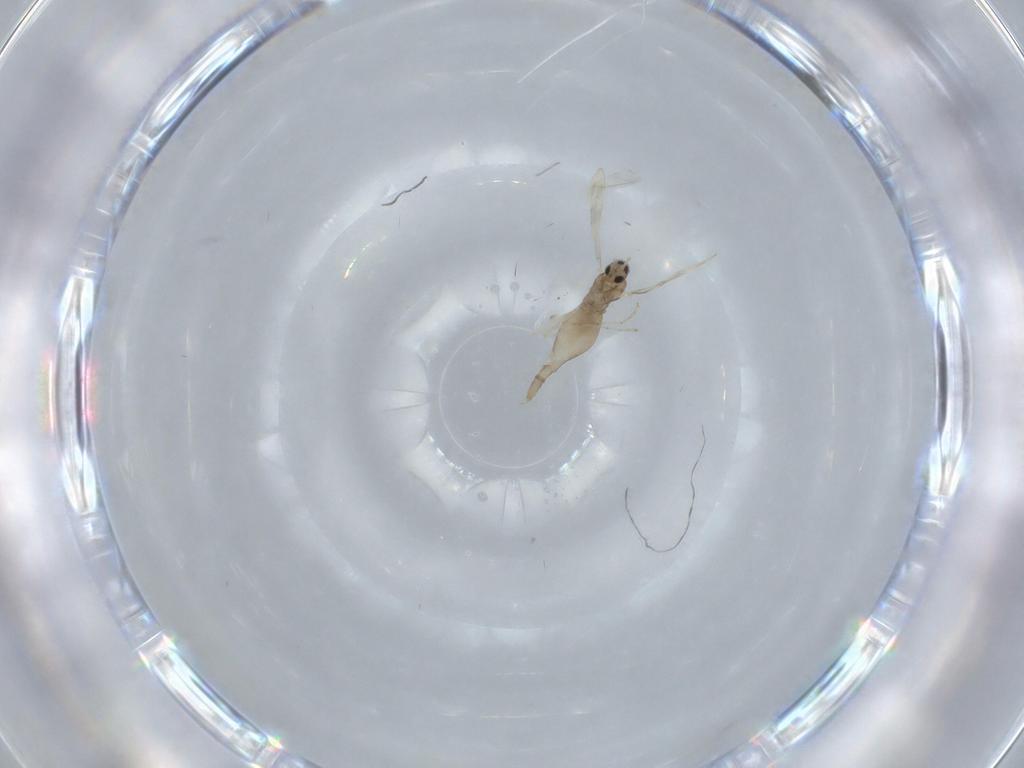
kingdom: Animalia
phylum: Arthropoda
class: Insecta
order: Diptera
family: Cecidomyiidae
